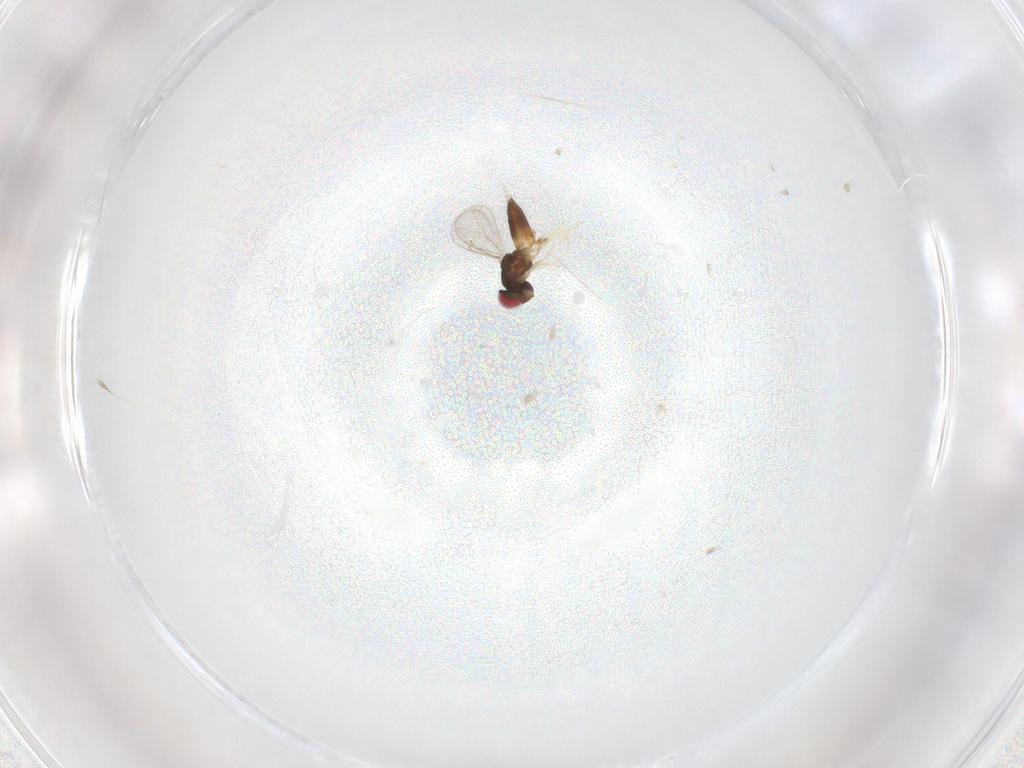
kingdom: Animalia
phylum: Arthropoda
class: Insecta
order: Hymenoptera
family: Eulophidae
